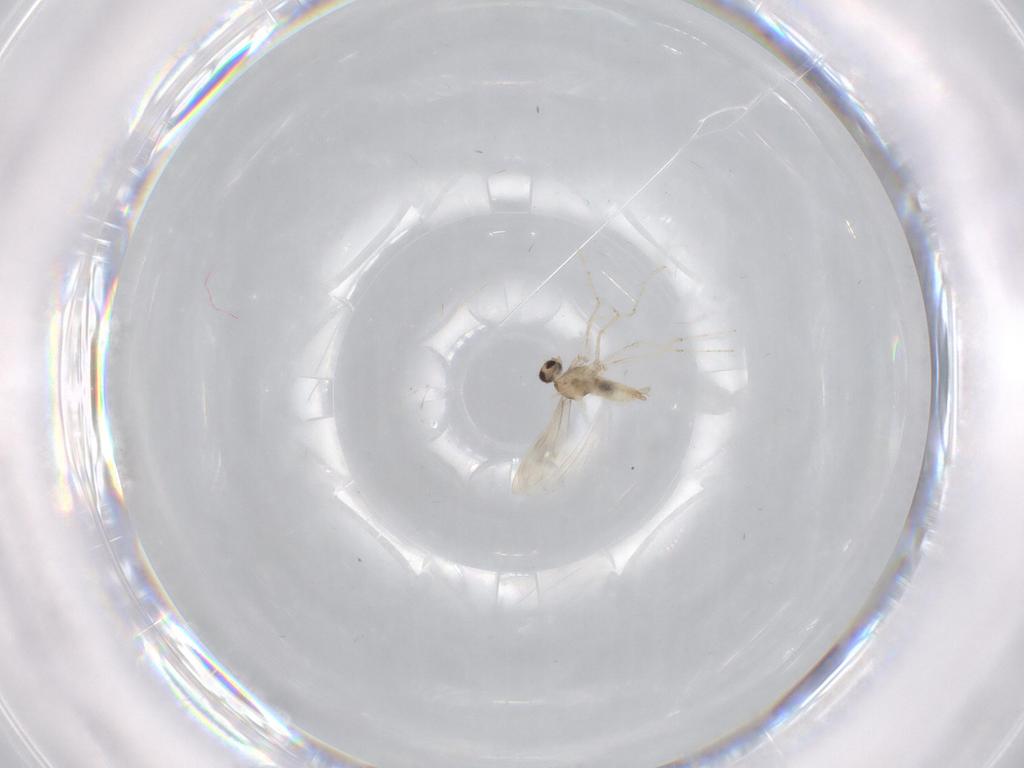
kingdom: Animalia
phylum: Arthropoda
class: Insecta
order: Diptera
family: Cecidomyiidae
